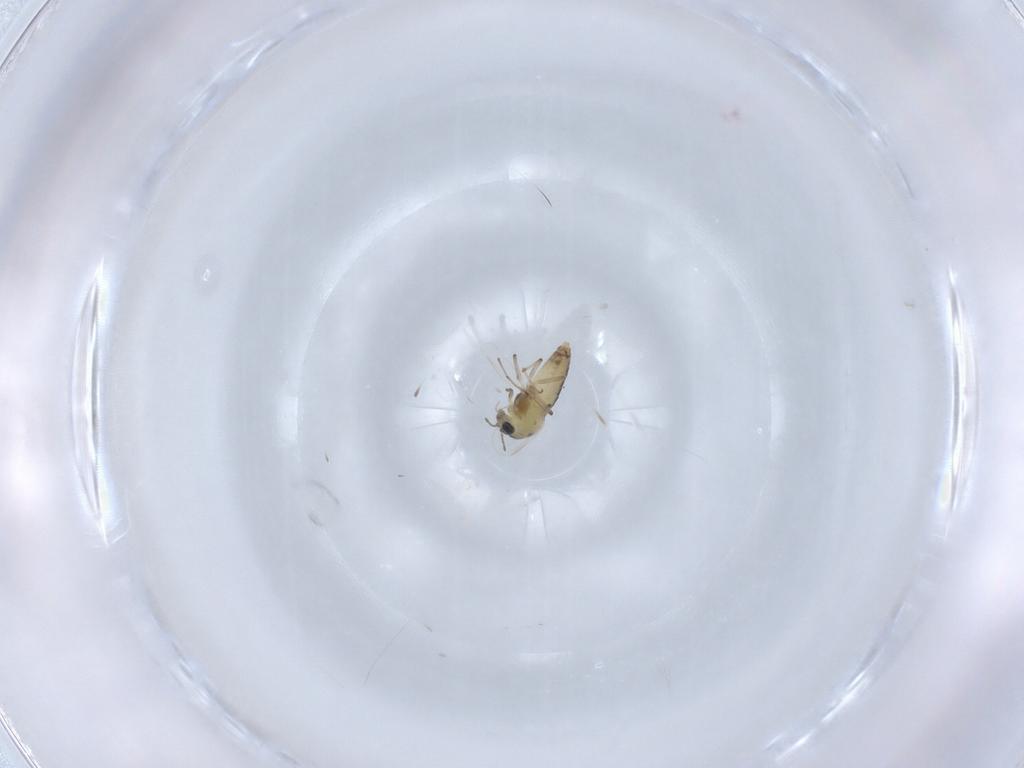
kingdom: Animalia
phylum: Arthropoda
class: Insecta
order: Diptera
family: Chironomidae
